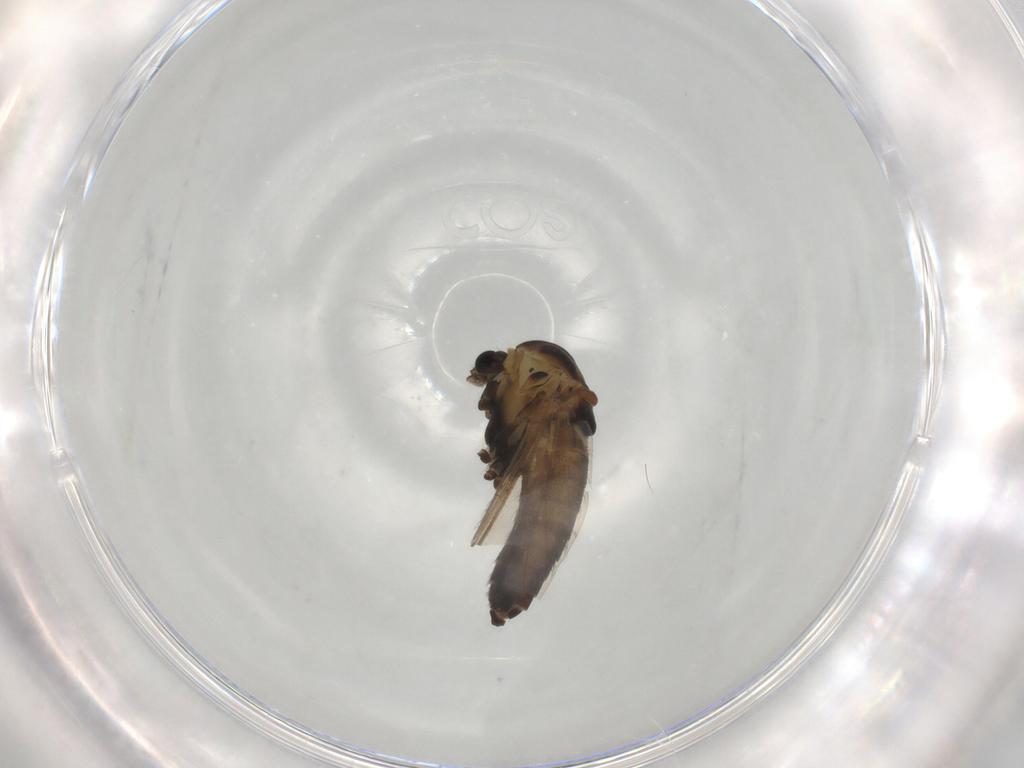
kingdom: Animalia
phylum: Arthropoda
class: Insecta
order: Diptera
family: Chironomidae
